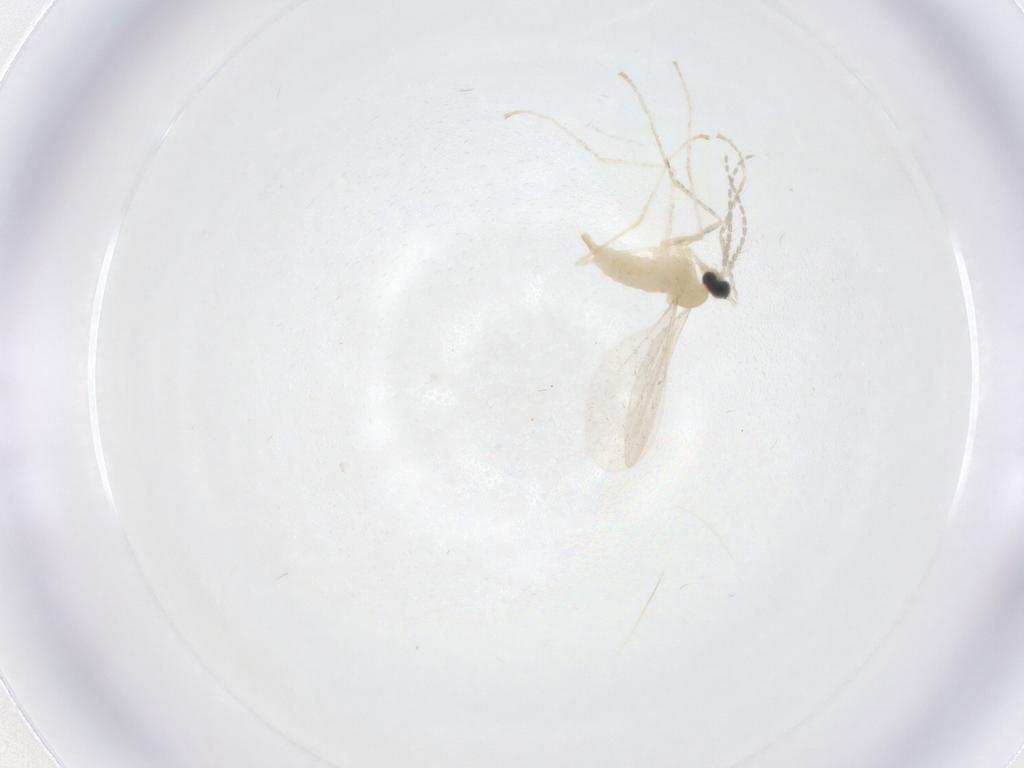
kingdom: Animalia
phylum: Arthropoda
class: Insecta
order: Diptera
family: Cecidomyiidae
